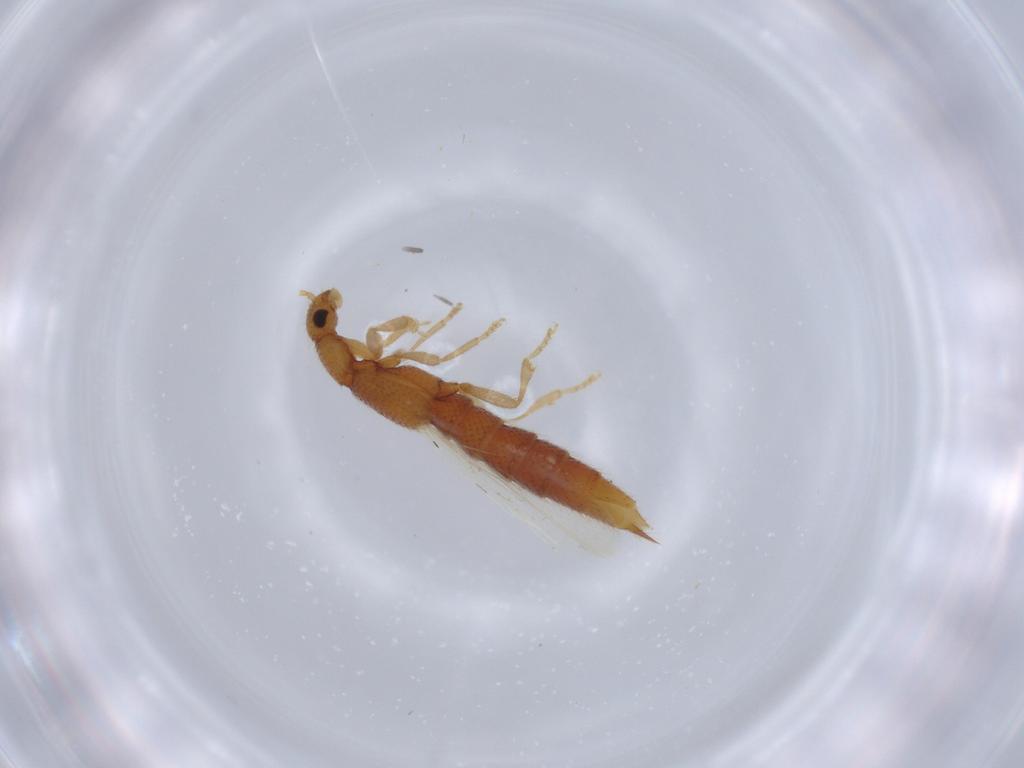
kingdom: Animalia
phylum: Arthropoda
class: Insecta
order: Coleoptera
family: Staphylinidae
